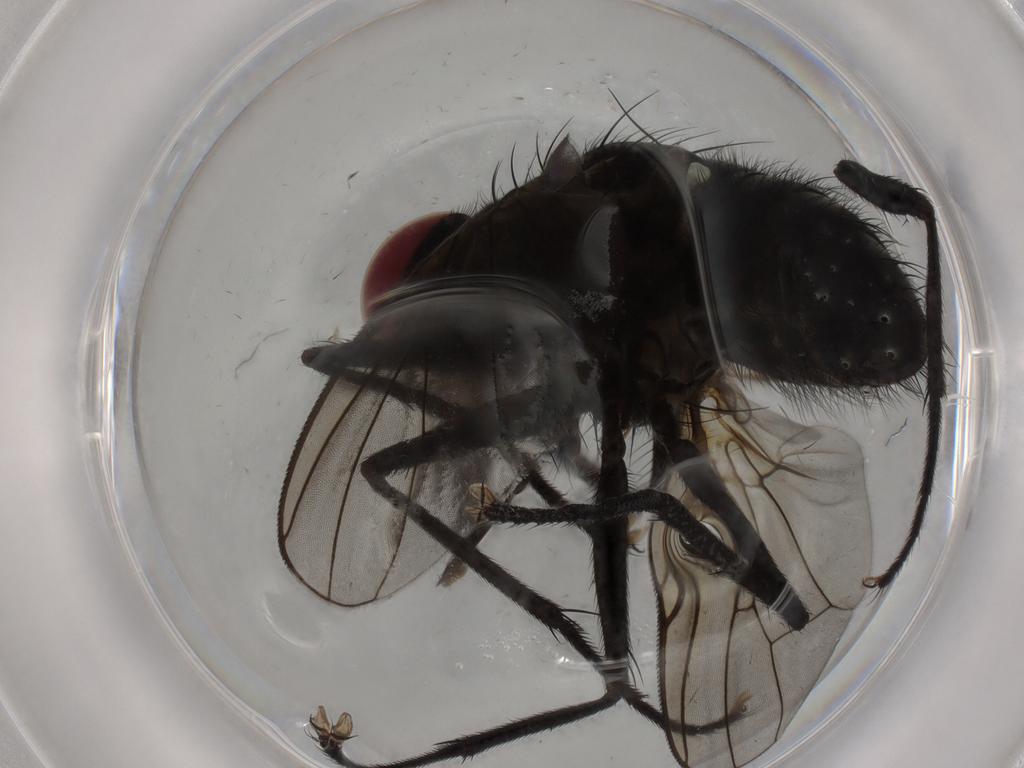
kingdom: Animalia
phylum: Arthropoda
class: Insecta
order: Diptera
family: Muscidae
